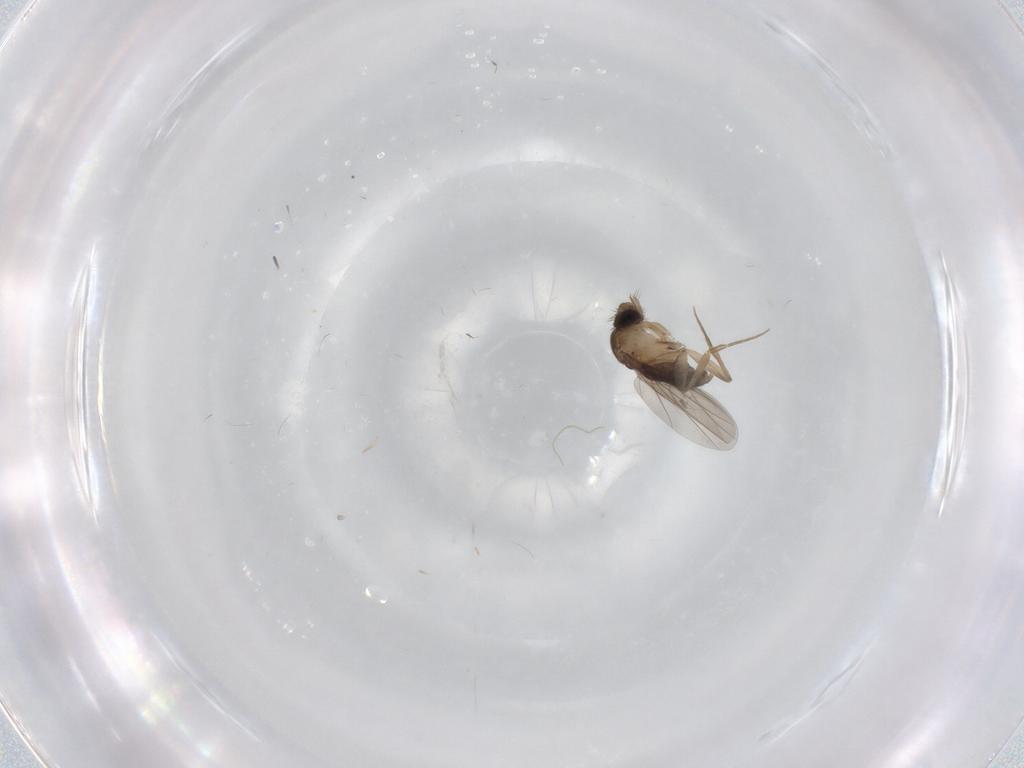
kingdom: Animalia
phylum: Arthropoda
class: Insecta
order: Diptera
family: Phoridae
